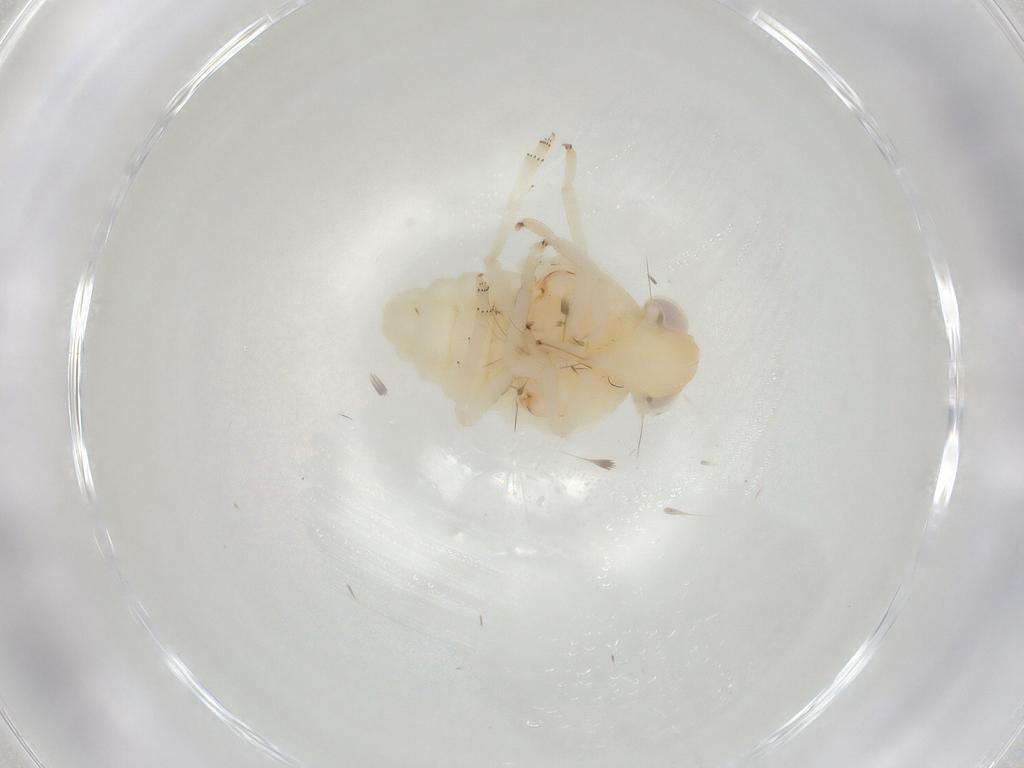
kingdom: Animalia
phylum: Arthropoda
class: Insecta
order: Hemiptera
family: Nogodinidae
